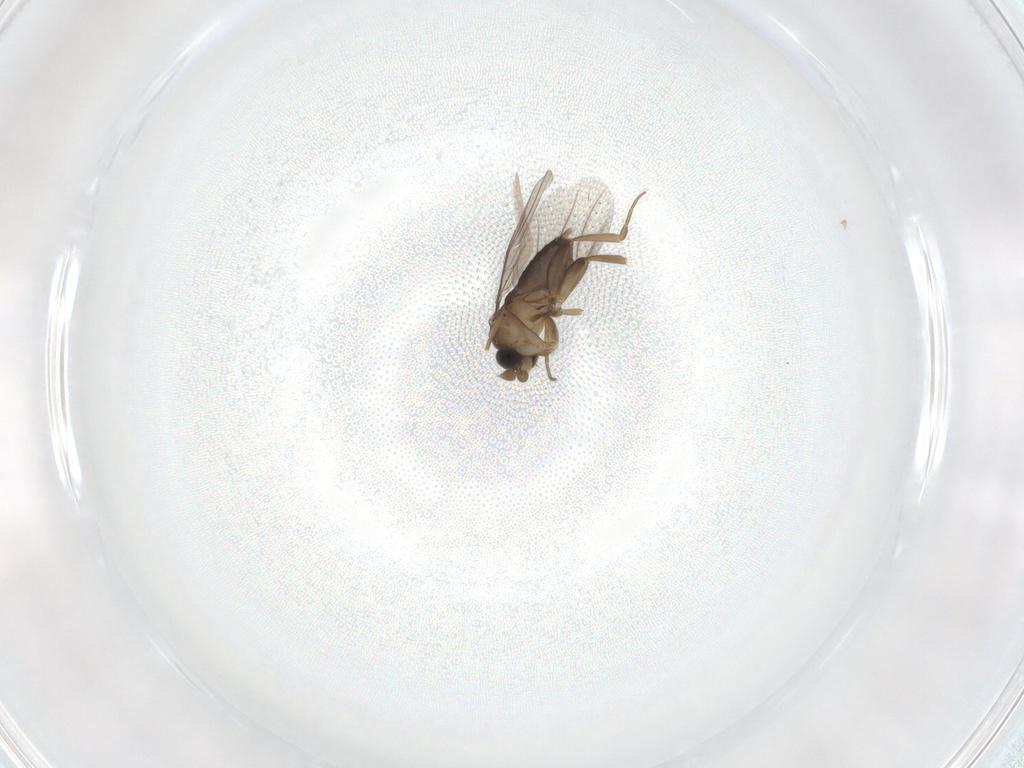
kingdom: Animalia
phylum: Arthropoda
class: Insecta
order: Diptera
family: Phoridae
